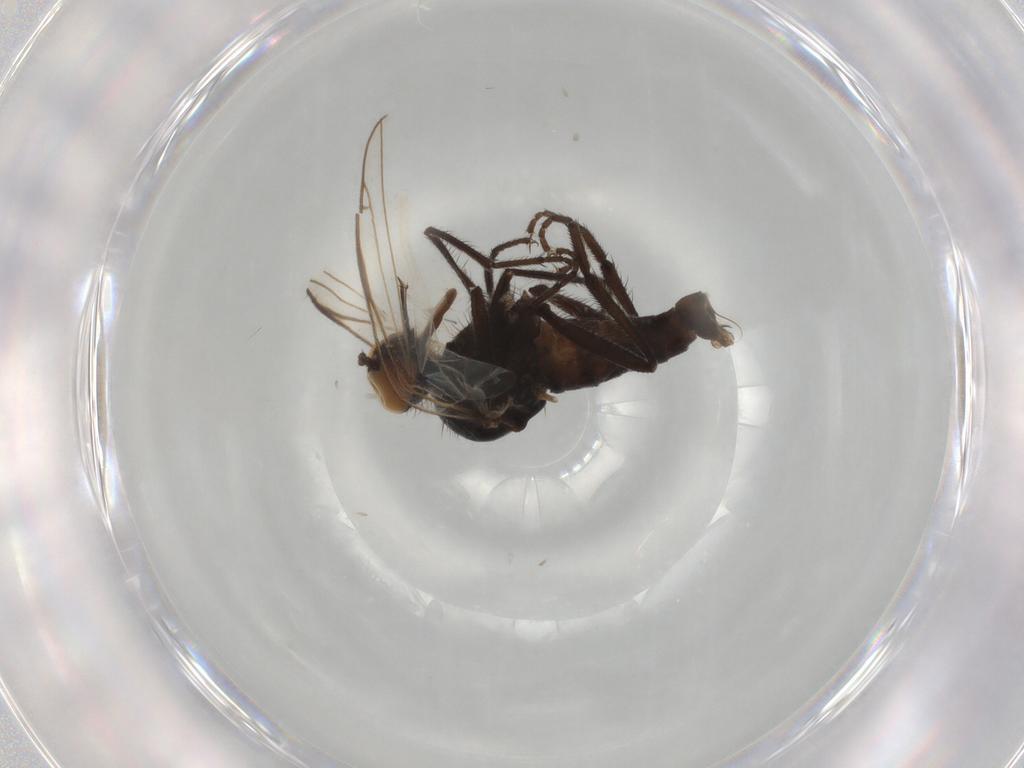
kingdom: Animalia
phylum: Arthropoda
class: Insecta
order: Diptera
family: Empididae
